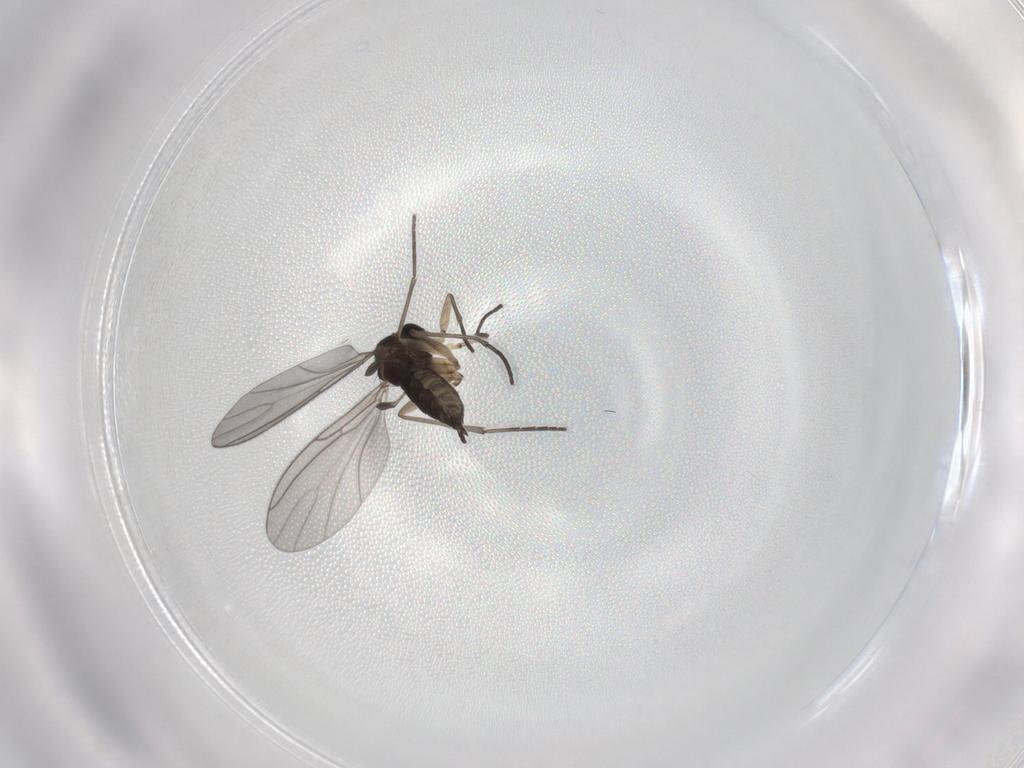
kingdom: Animalia
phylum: Arthropoda
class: Insecta
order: Diptera
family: Sciaridae
